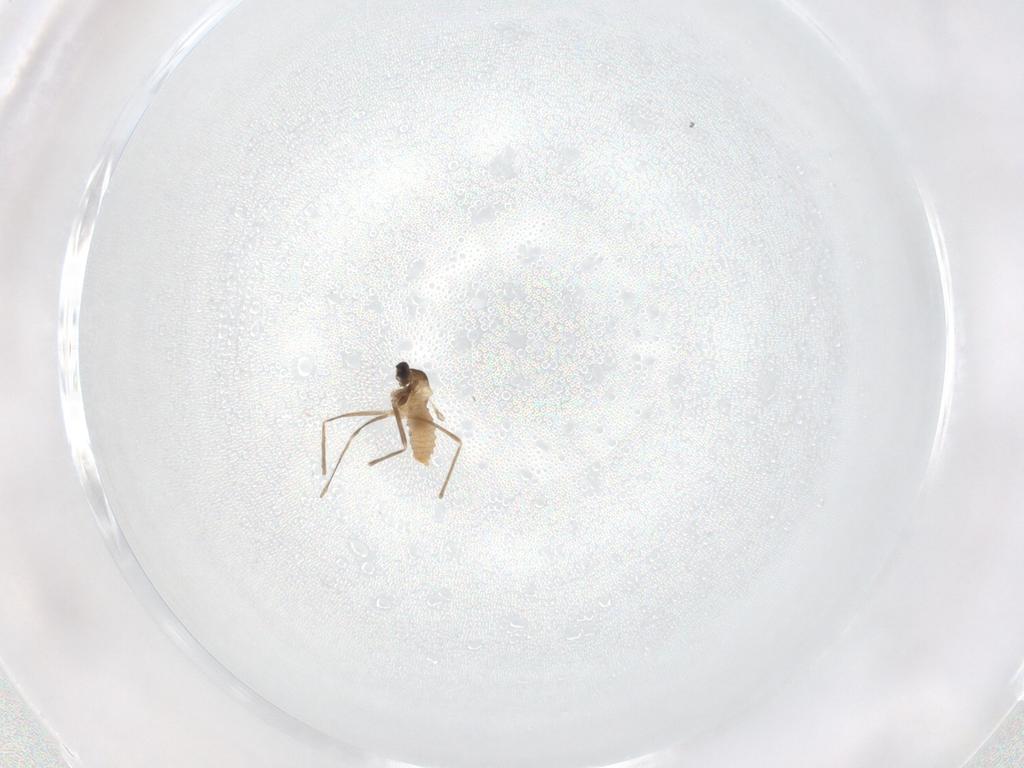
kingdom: Animalia
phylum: Arthropoda
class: Insecta
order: Diptera
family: Cecidomyiidae
